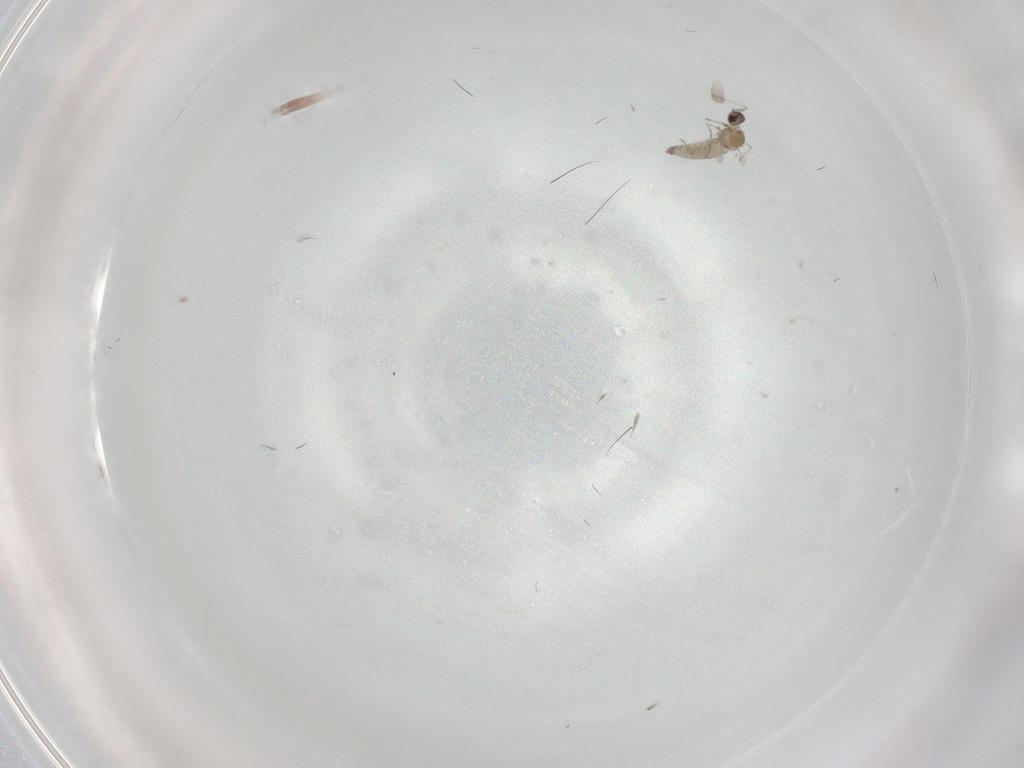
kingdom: Animalia
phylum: Arthropoda
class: Insecta
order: Diptera
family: Tabanidae
